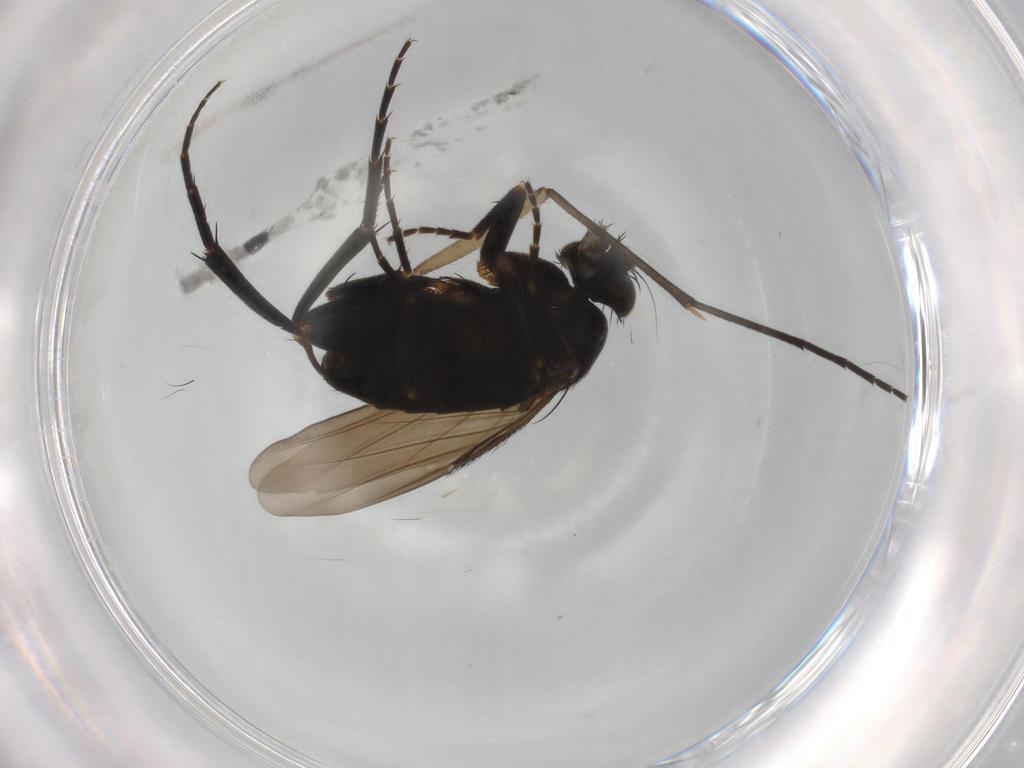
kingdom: Animalia
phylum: Arthropoda
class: Insecta
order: Diptera
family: Phoridae
